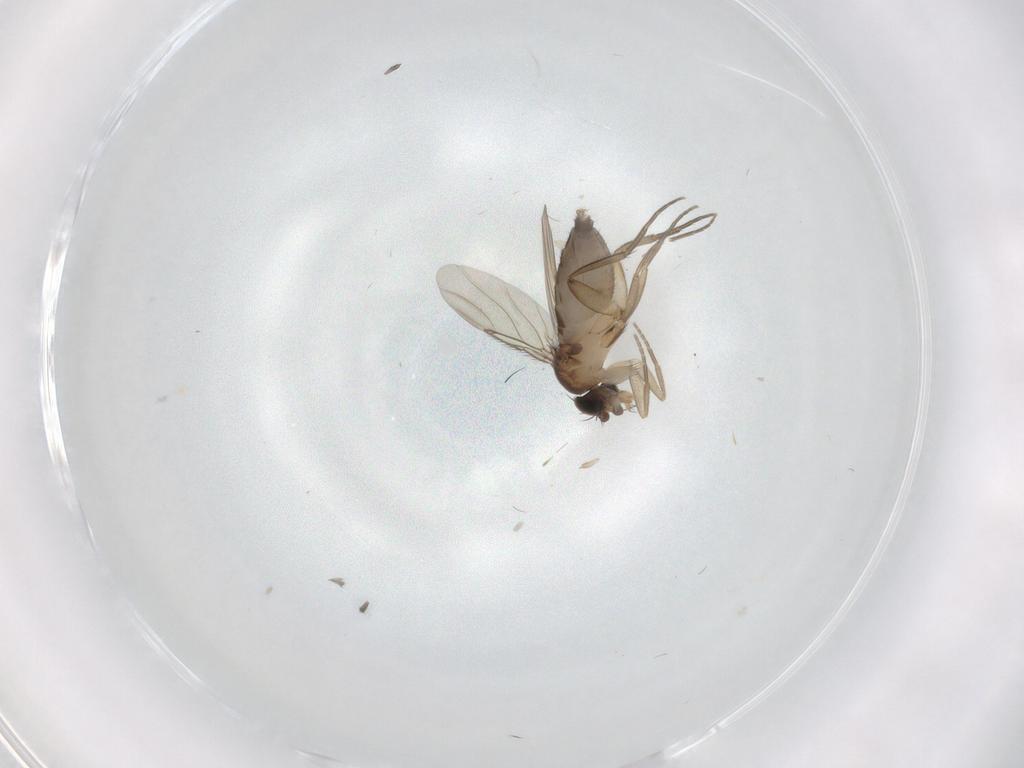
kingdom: Animalia
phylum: Arthropoda
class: Insecta
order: Diptera
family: Phoridae
